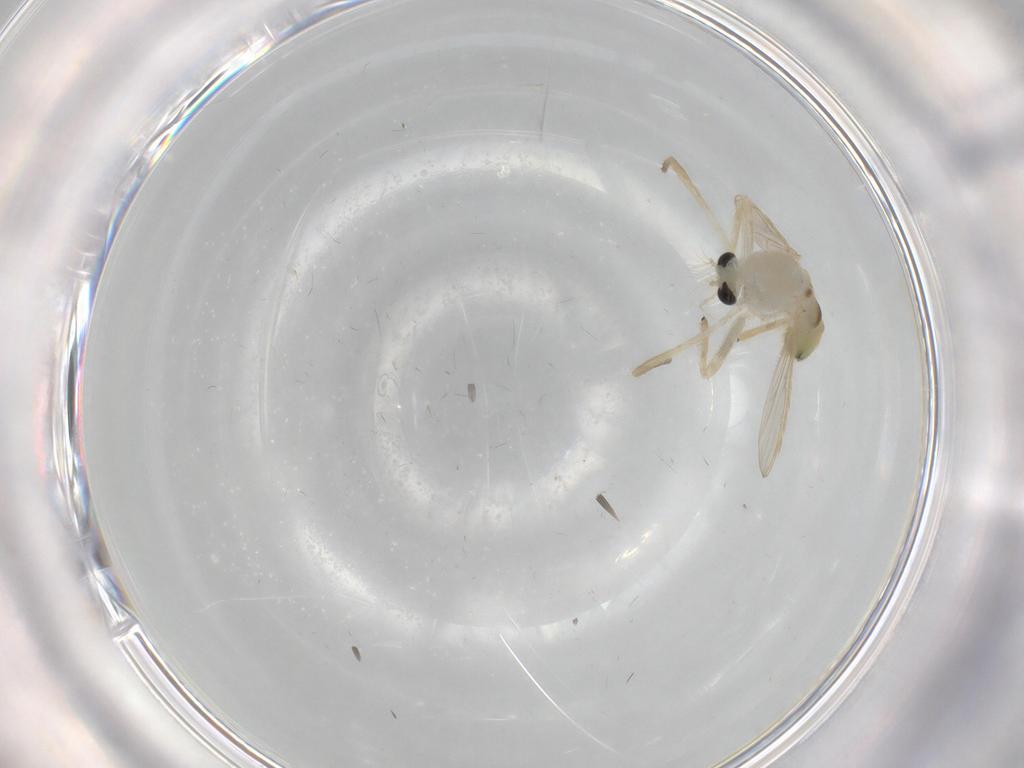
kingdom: Animalia
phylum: Arthropoda
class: Insecta
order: Diptera
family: Chironomidae
